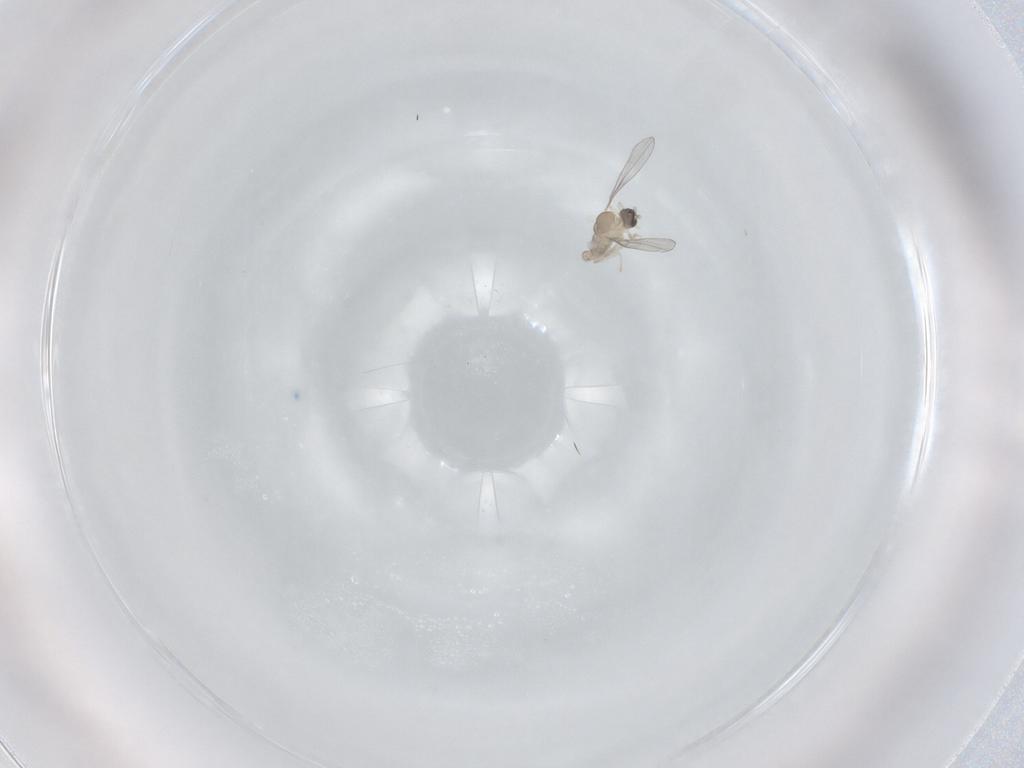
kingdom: Animalia
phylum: Arthropoda
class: Insecta
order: Diptera
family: Cecidomyiidae
